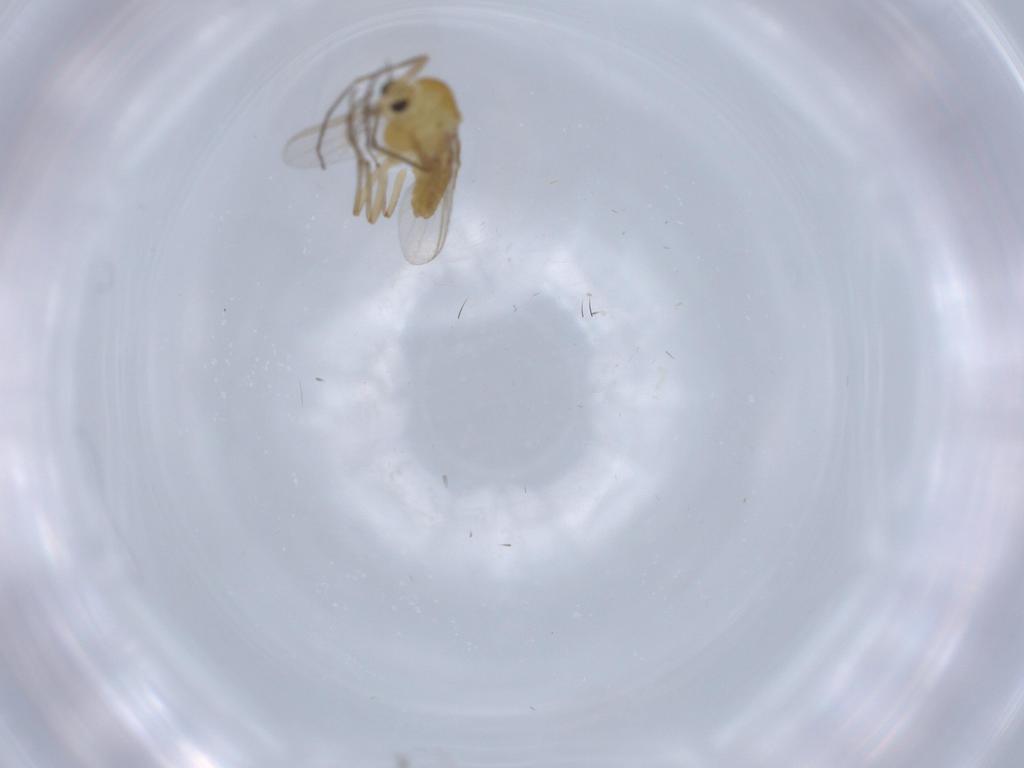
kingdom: Animalia
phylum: Arthropoda
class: Insecta
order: Diptera
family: Chironomidae
